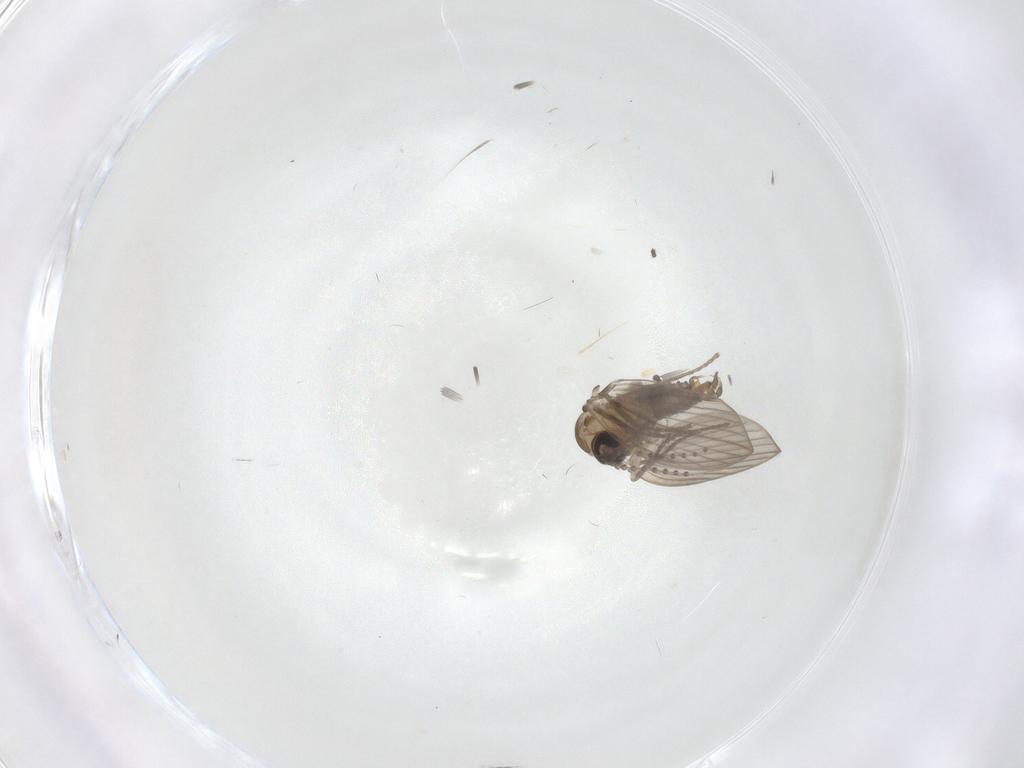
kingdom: Animalia
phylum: Arthropoda
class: Insecta
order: Diptera
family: Psychodidae
